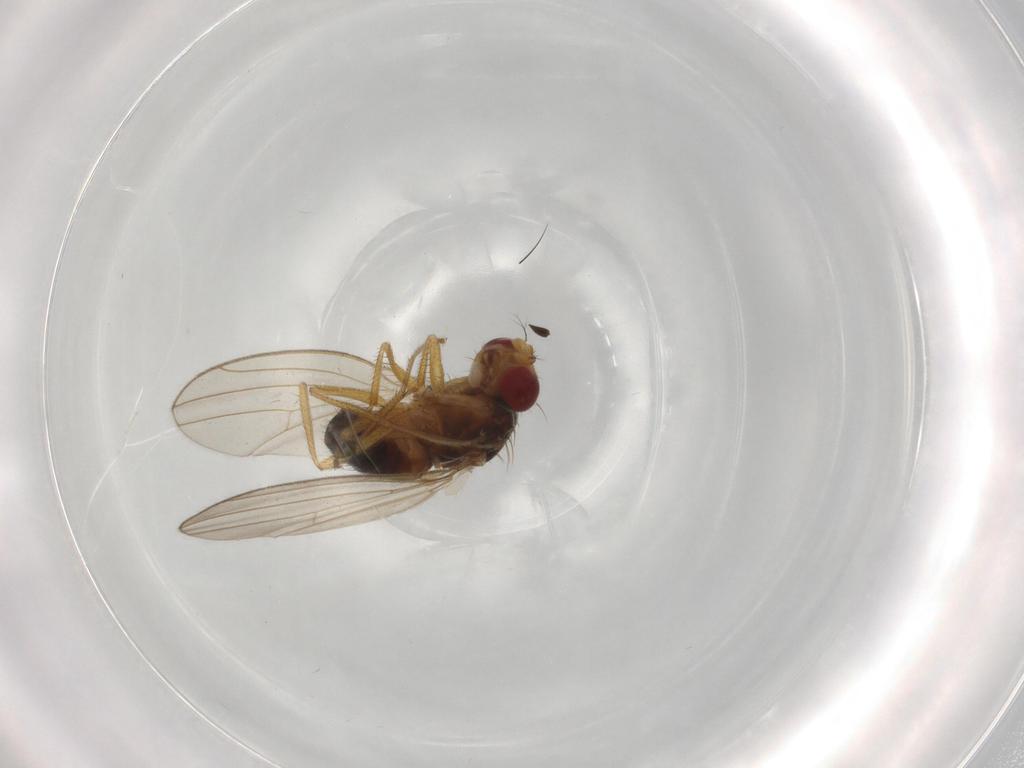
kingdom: Animalia
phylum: Arthropoda
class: Insecta
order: Diptera
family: Drosophilidae
